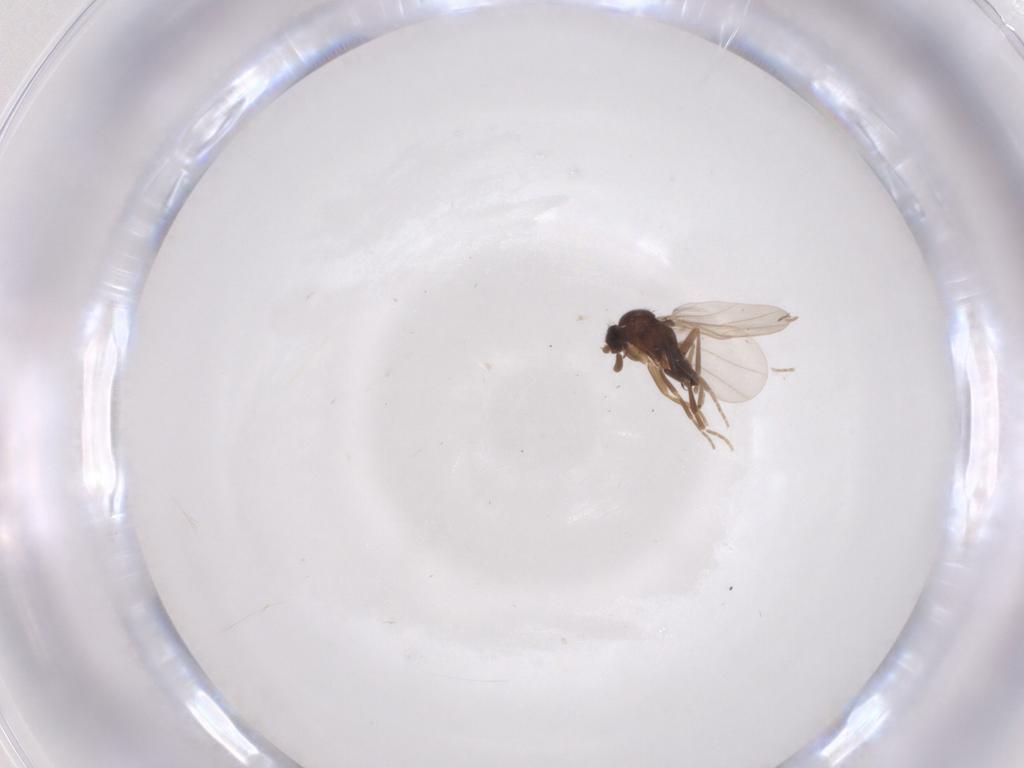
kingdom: Animalia
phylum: Arthropoda
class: Insecta
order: Diptera
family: Phoridae
